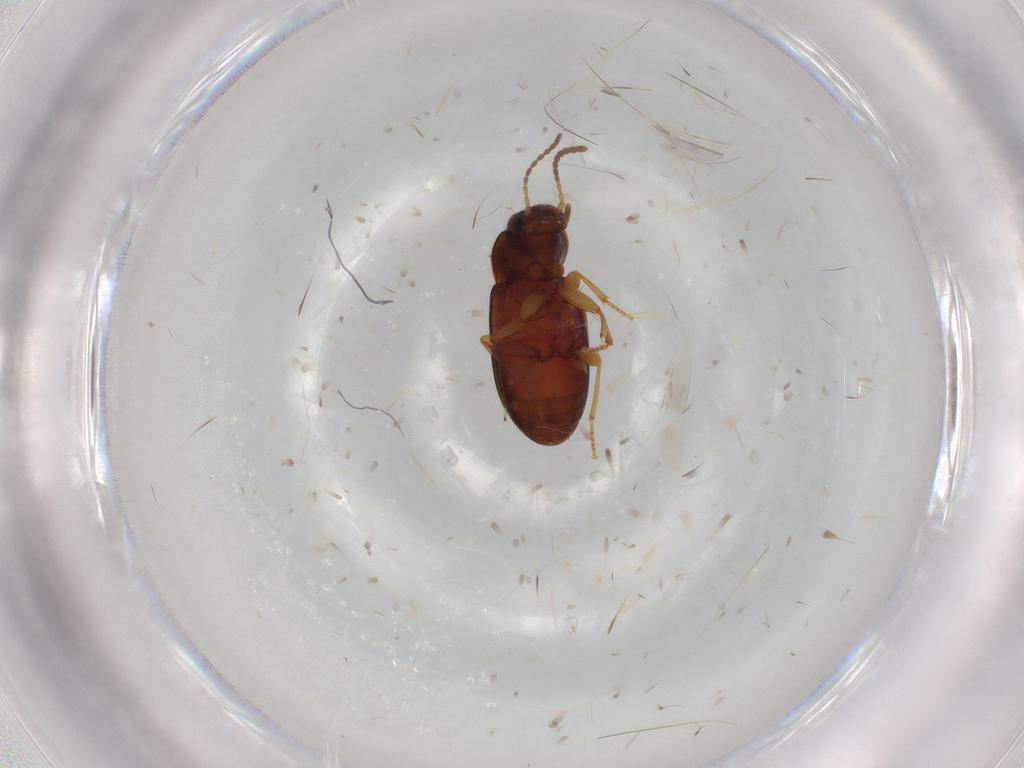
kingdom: Animalia
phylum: Arthropoda
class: Insecta
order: Coleoptera
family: Carabidae
